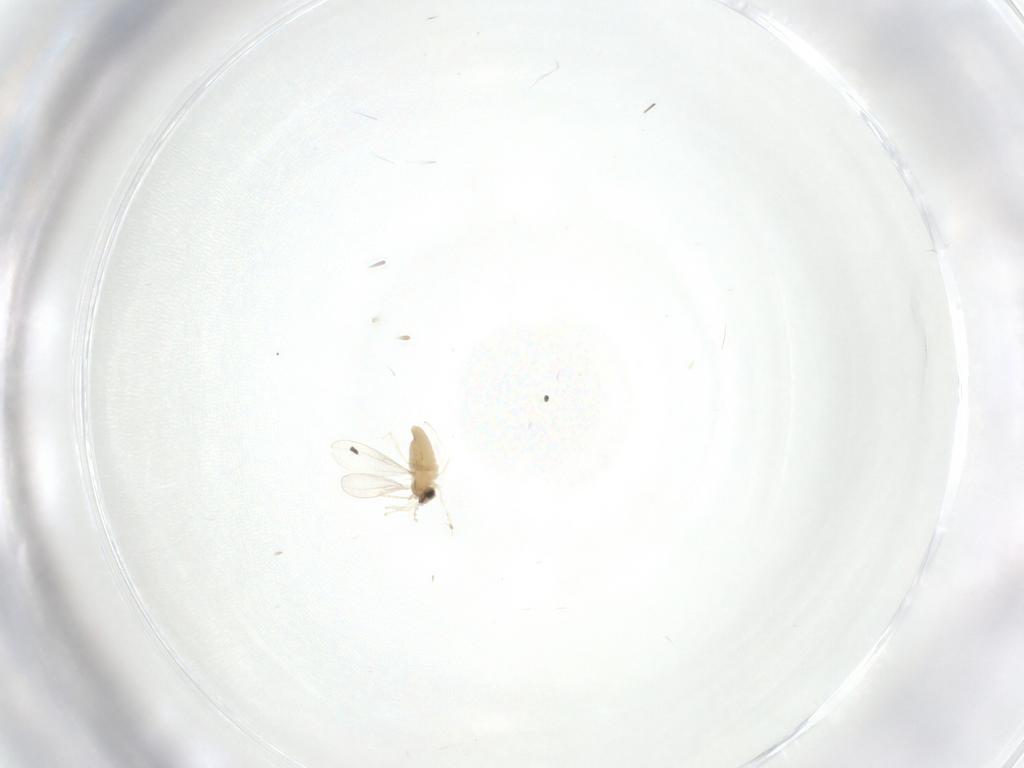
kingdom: Animalia
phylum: Arthropoda
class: Insecta
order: Diptera
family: Cecidomyiidae
